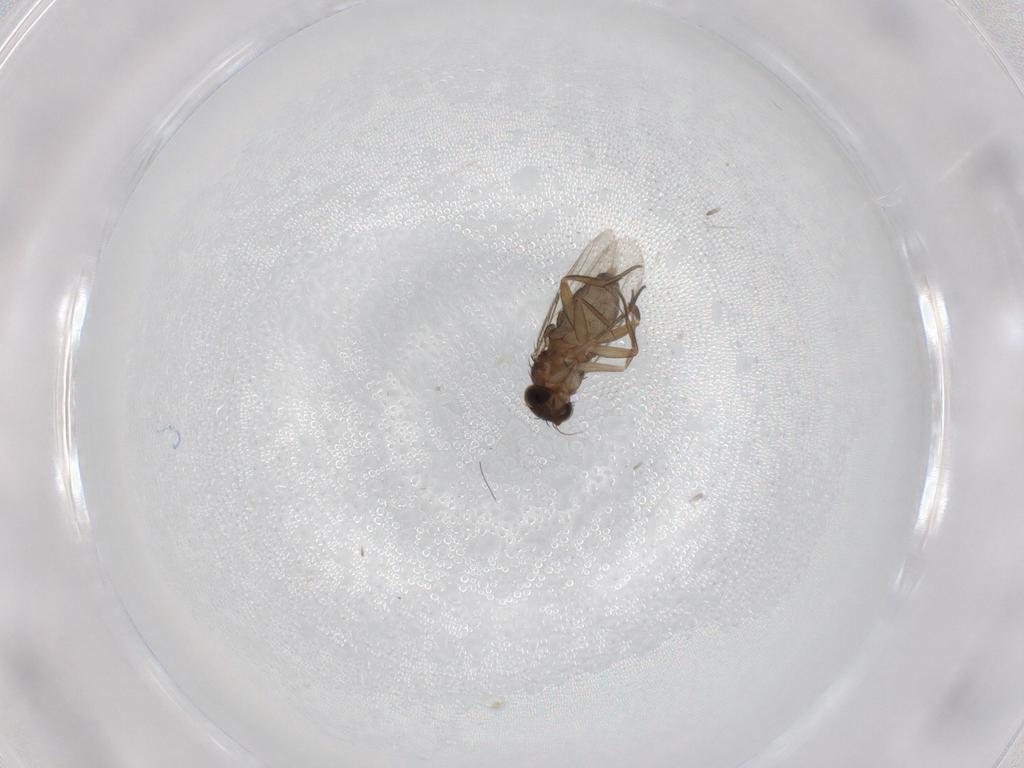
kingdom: Animalia
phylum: Arthropoda
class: Insecta
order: Diptera
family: Phoridae
